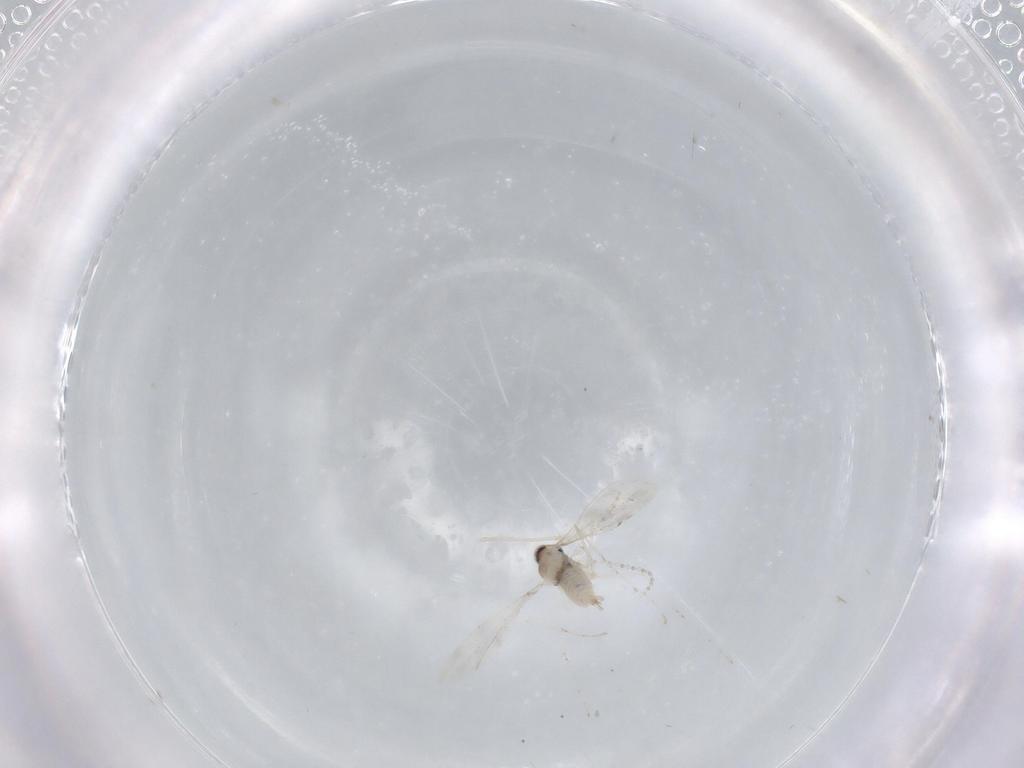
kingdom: Animalia
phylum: Arthropoda
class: Insecta
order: Diptera
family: Cecidomyiidae
